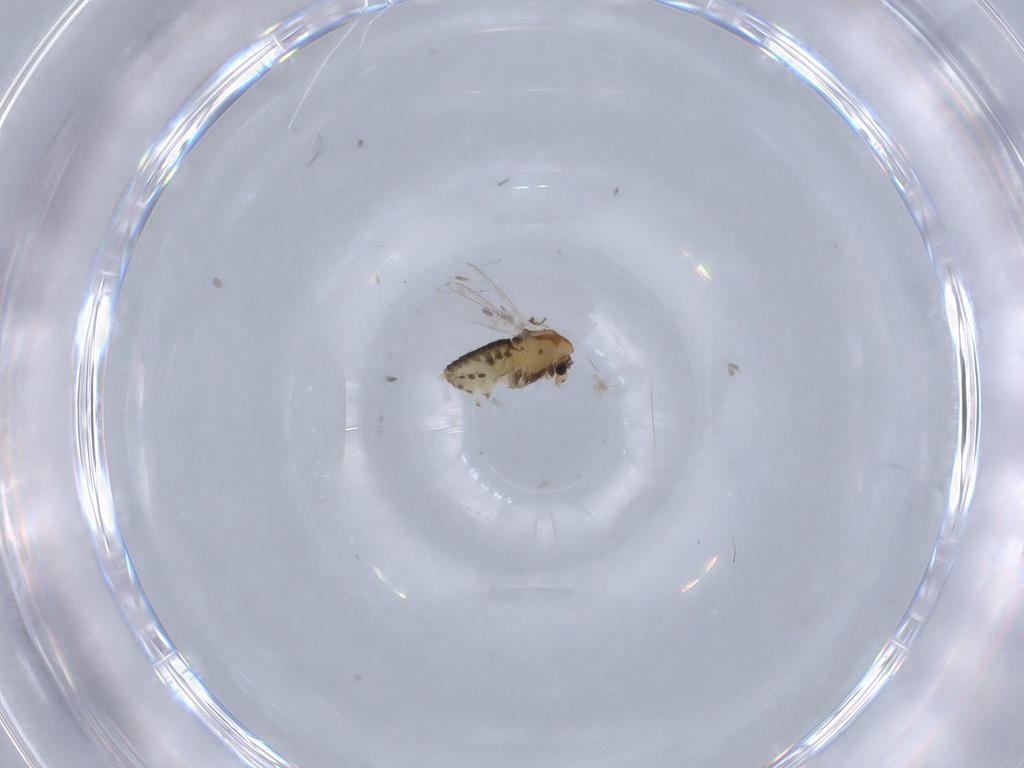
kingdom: Animalia
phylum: Arthropoda
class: Insecta
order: Diptera
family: Chironomidae
